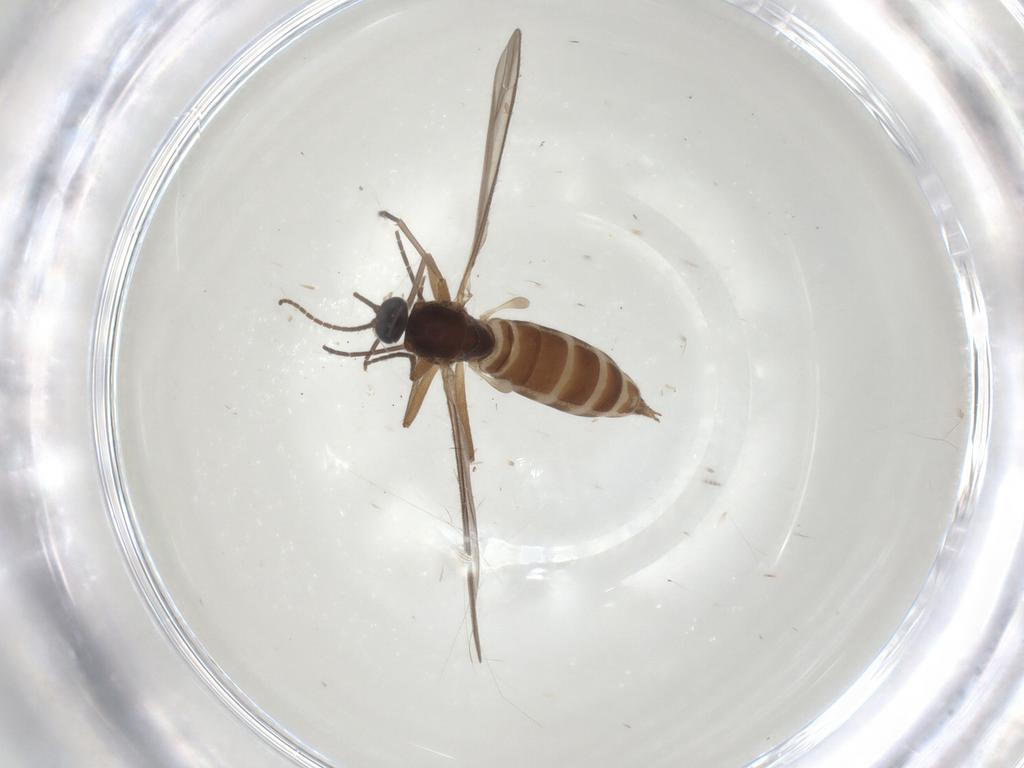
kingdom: Animalia
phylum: Arthropoda
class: Insecta
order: Diptera
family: Sciaridae
